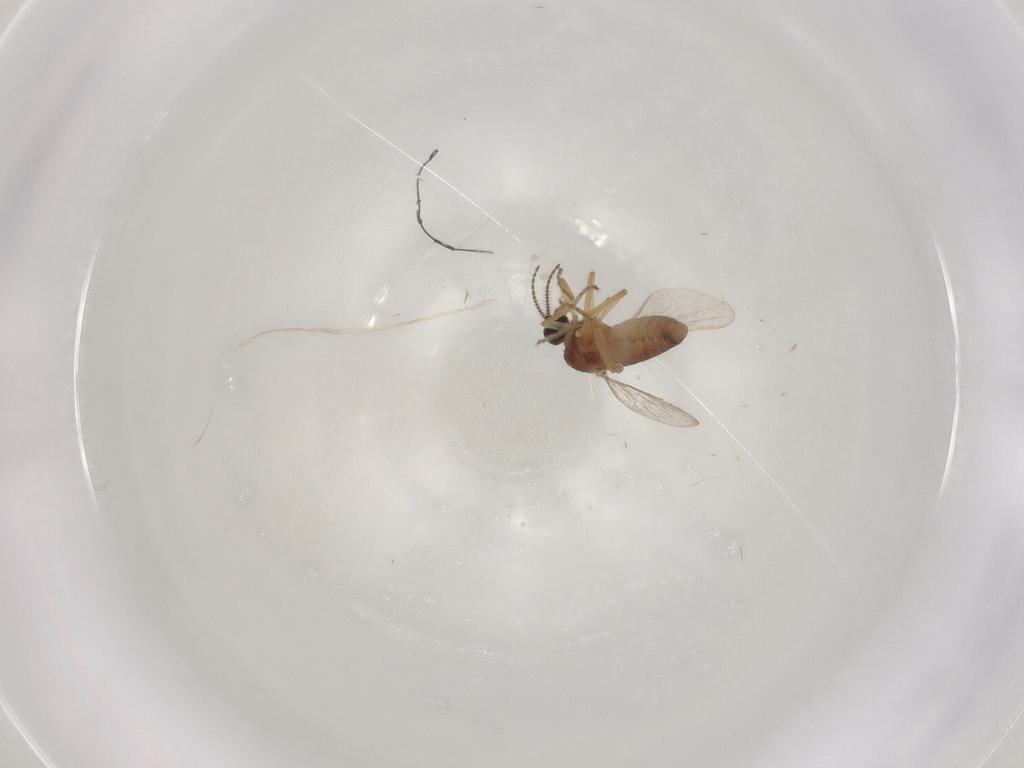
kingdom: Animalia
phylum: Arthropoda
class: Insecta
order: Diptera
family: Ceratopogonidae
